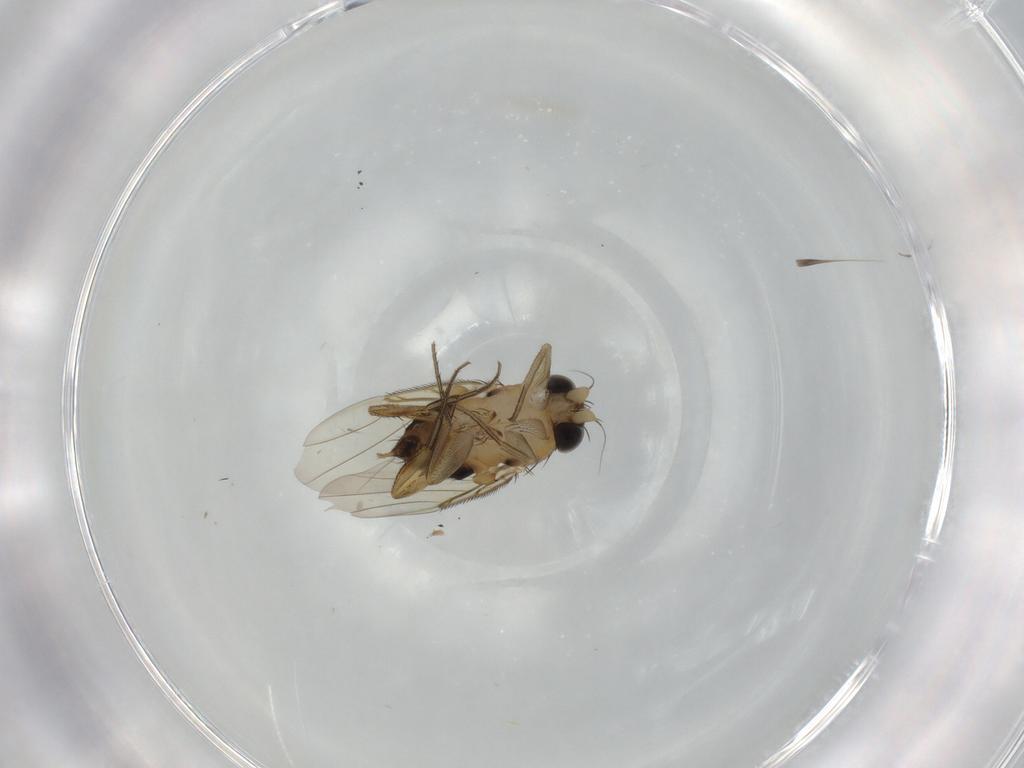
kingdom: Animalia
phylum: Arthropoda
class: Insecta
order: Diptera
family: Phoridae
